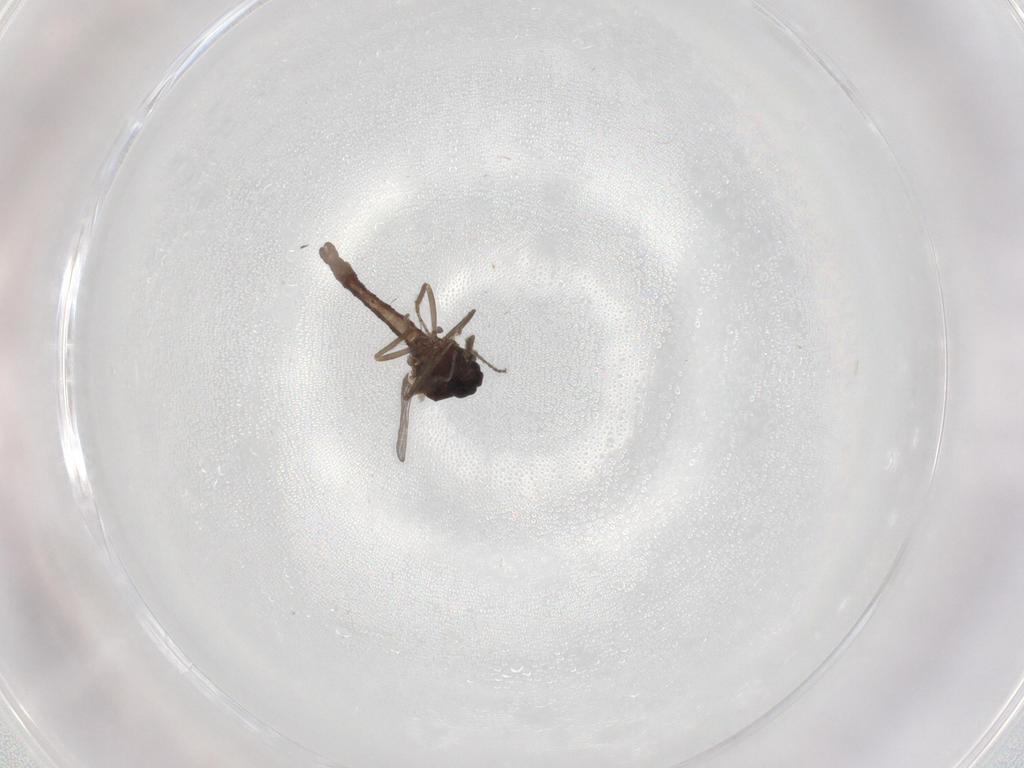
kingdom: Animalia
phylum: Arthropoda
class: Insecta
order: Diptera
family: Ceratopogonidae
